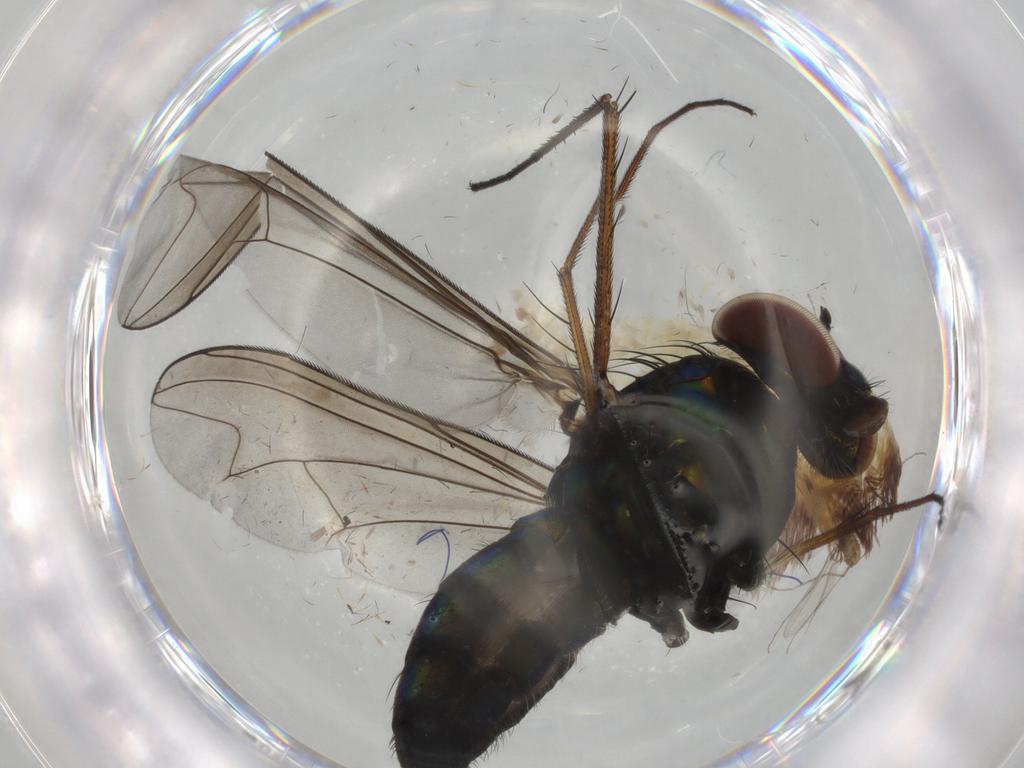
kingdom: Animalia
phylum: Arthropoda
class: Insecta
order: Diptera
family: Dolichopodidae
